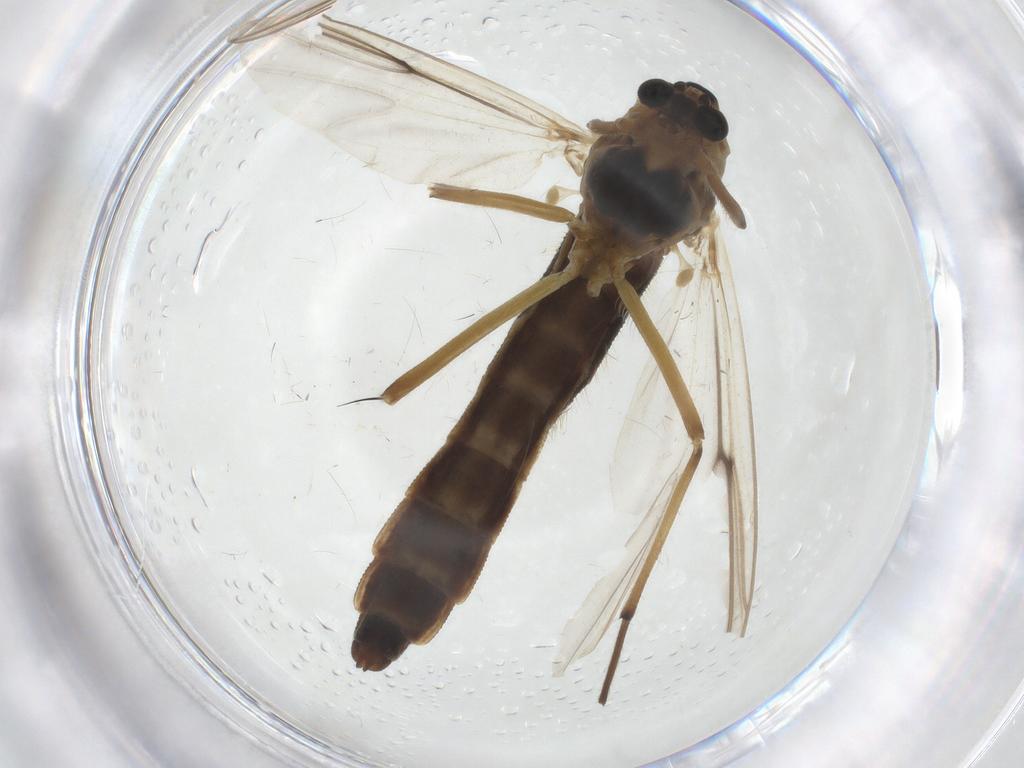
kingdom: Animalia
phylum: Arthropoda
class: Insecta
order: Diptera
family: Chironomidae
